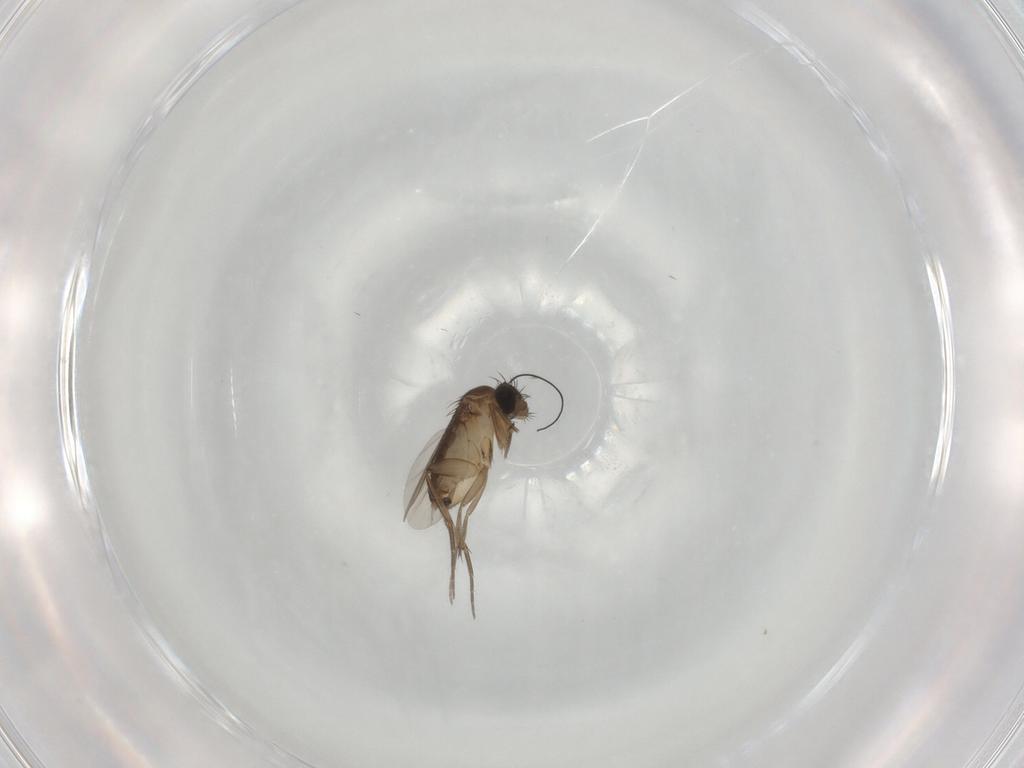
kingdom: Animalia
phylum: Arthropoda
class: Insecta
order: Diptera
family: Phoridae
